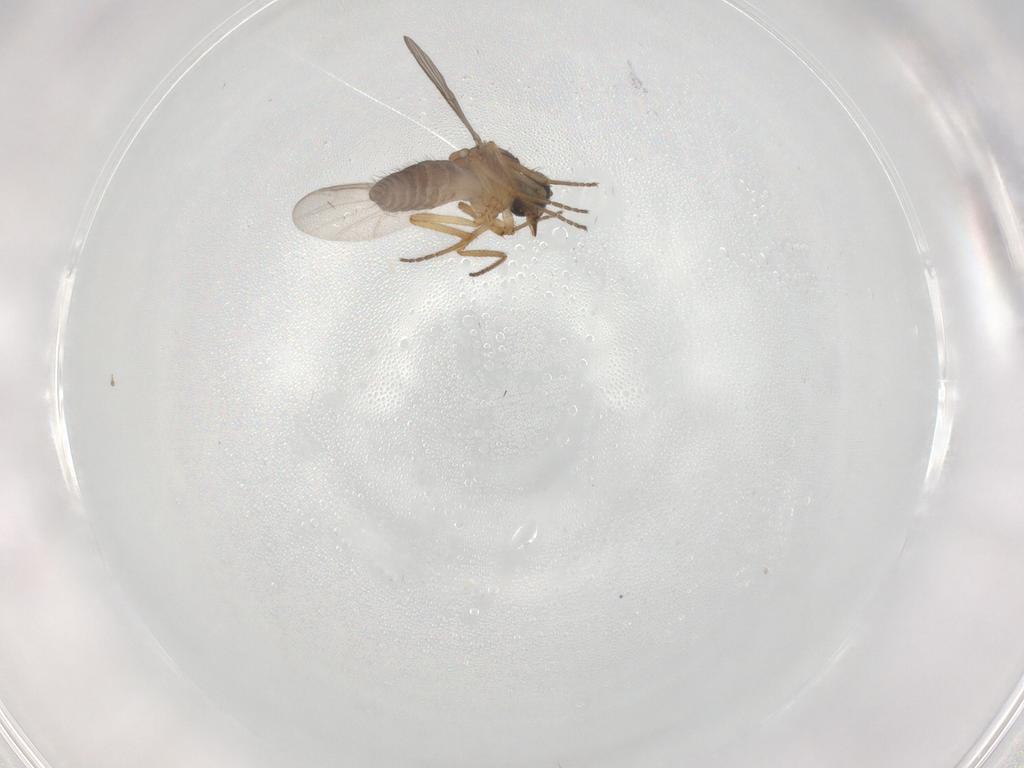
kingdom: Animalia
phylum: Arthropoda
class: Insecta
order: Diptera
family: Ceratopogonidae
